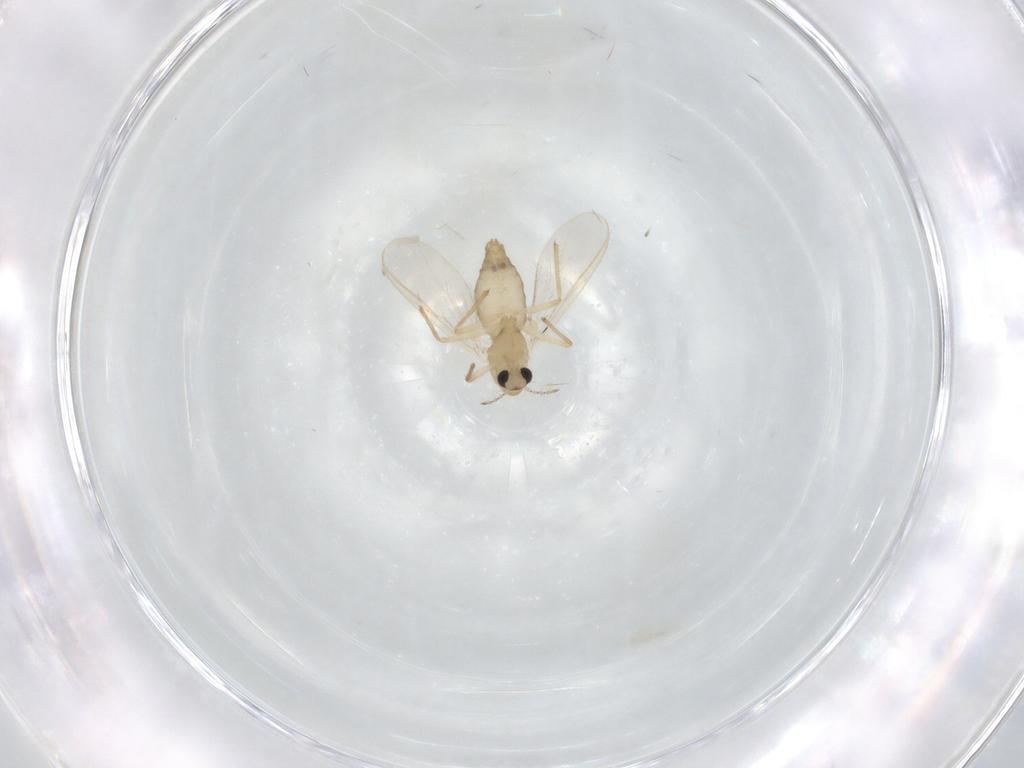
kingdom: Animalia
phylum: Arthropoda
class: Insecta
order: Diptera
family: Chironomidae
